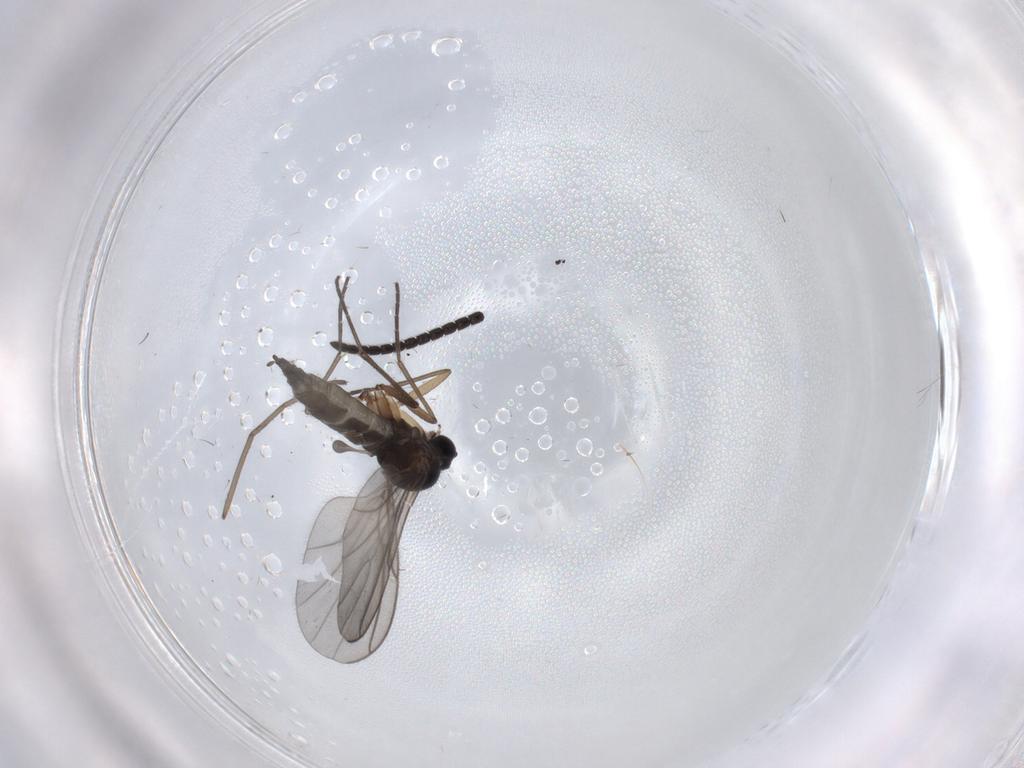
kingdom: Animalia
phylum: Arthropoda
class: Insecta
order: Diptera
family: Cecidomyiidae
